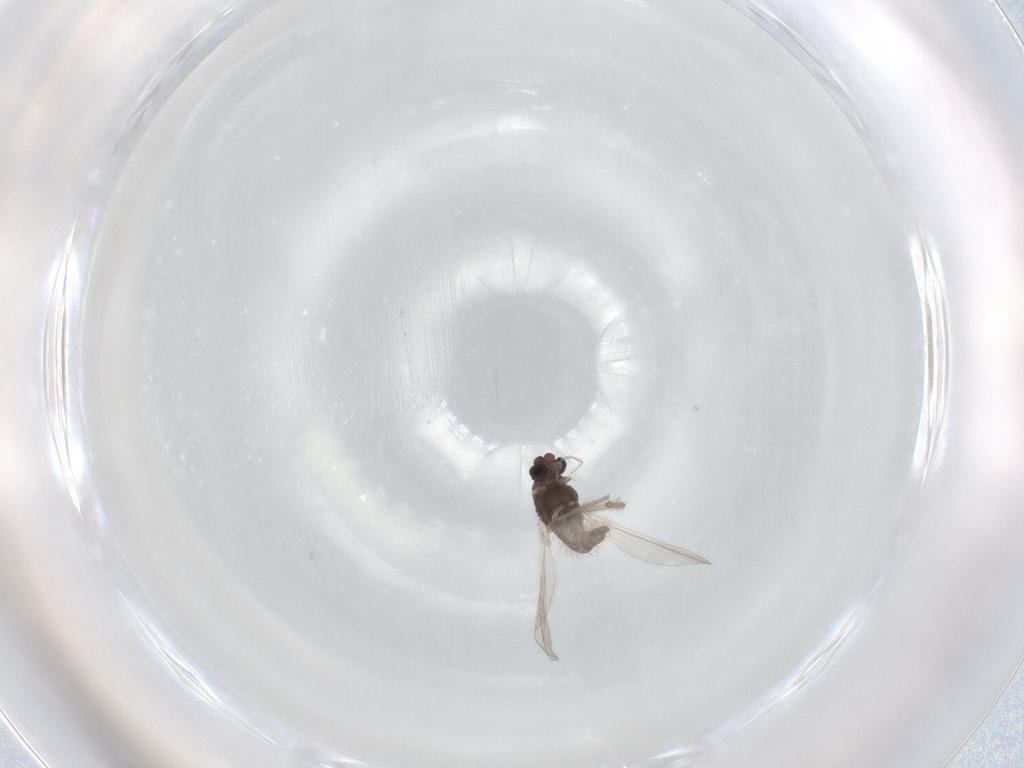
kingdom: Animalia
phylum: Arthropoda
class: Insecta
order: Diptera
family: Chironomidae
